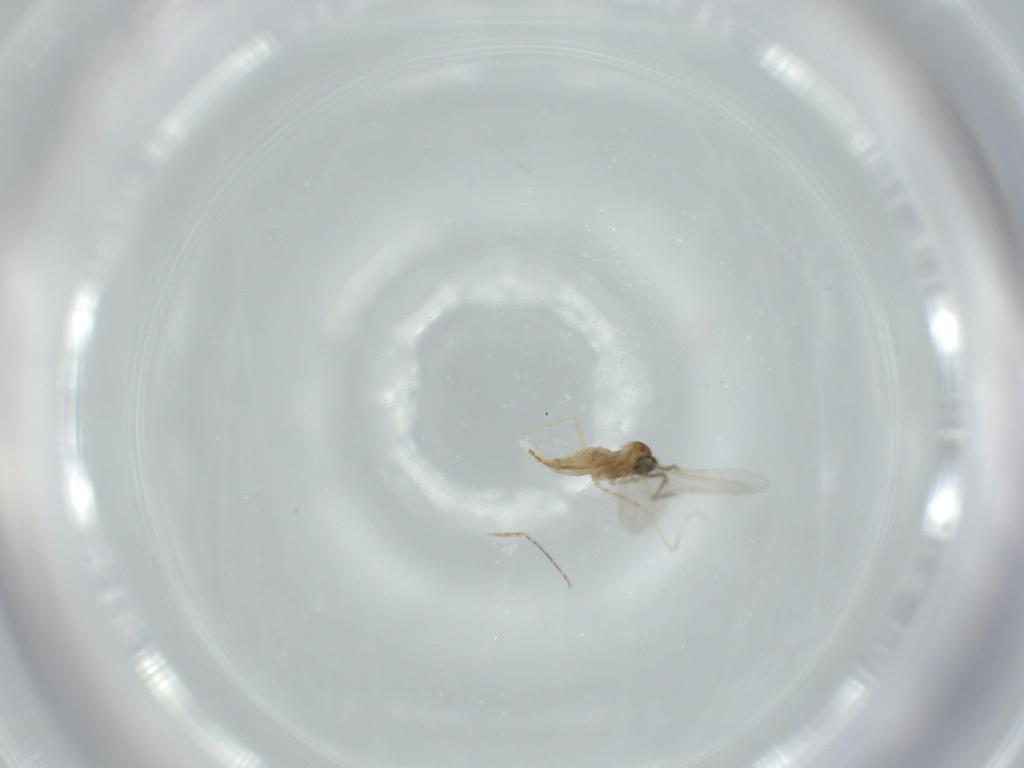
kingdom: Animalia
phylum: Arthropoda
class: Insecta
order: Diptera
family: Cecidomyiidae
